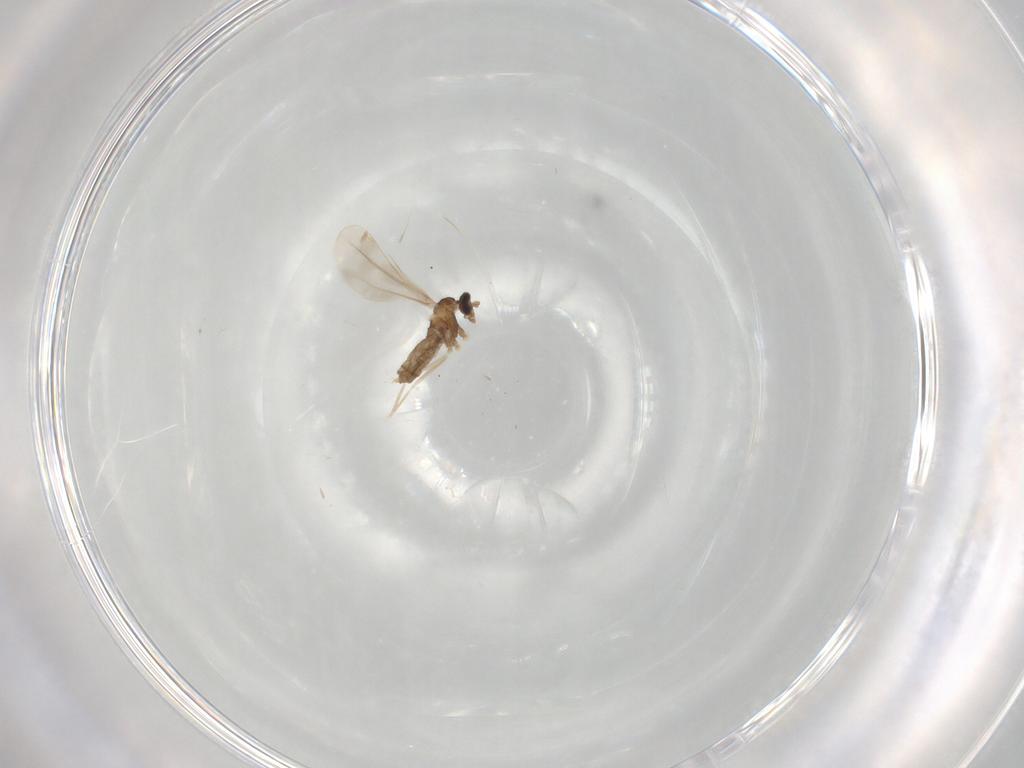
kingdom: Animalia
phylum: Arthropoda
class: Insecta
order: Diptera
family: Cecidomyiidae
